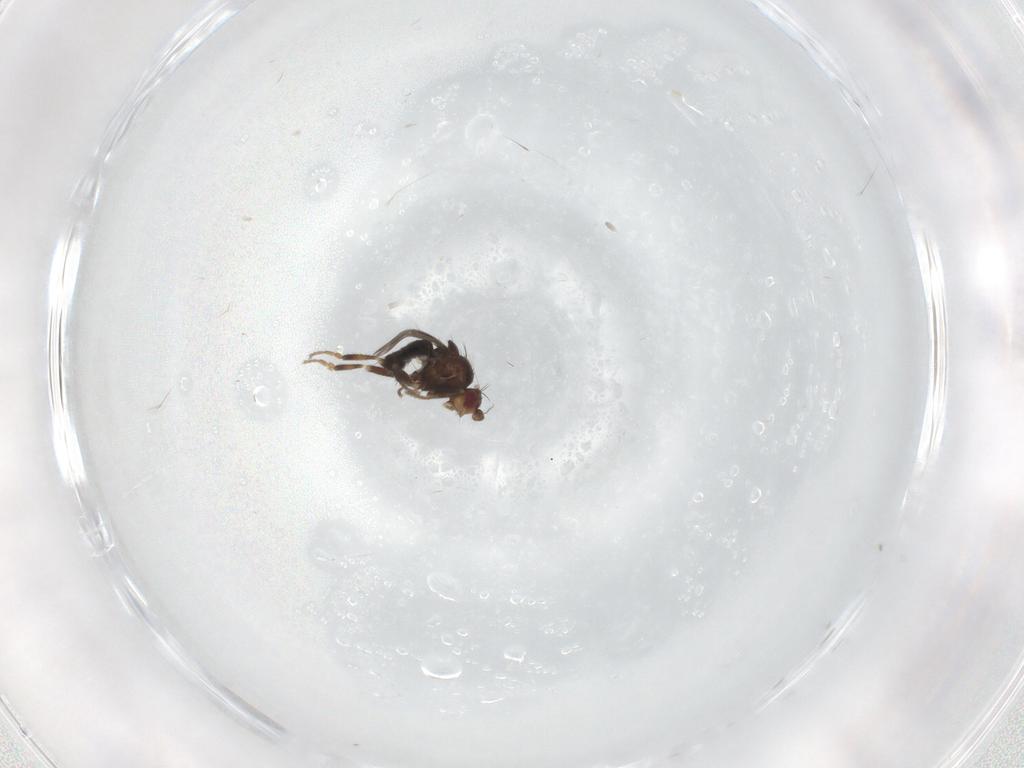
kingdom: Animalia
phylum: Arthropoda
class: Insecta
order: Diptera
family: Sphaeroceridae
